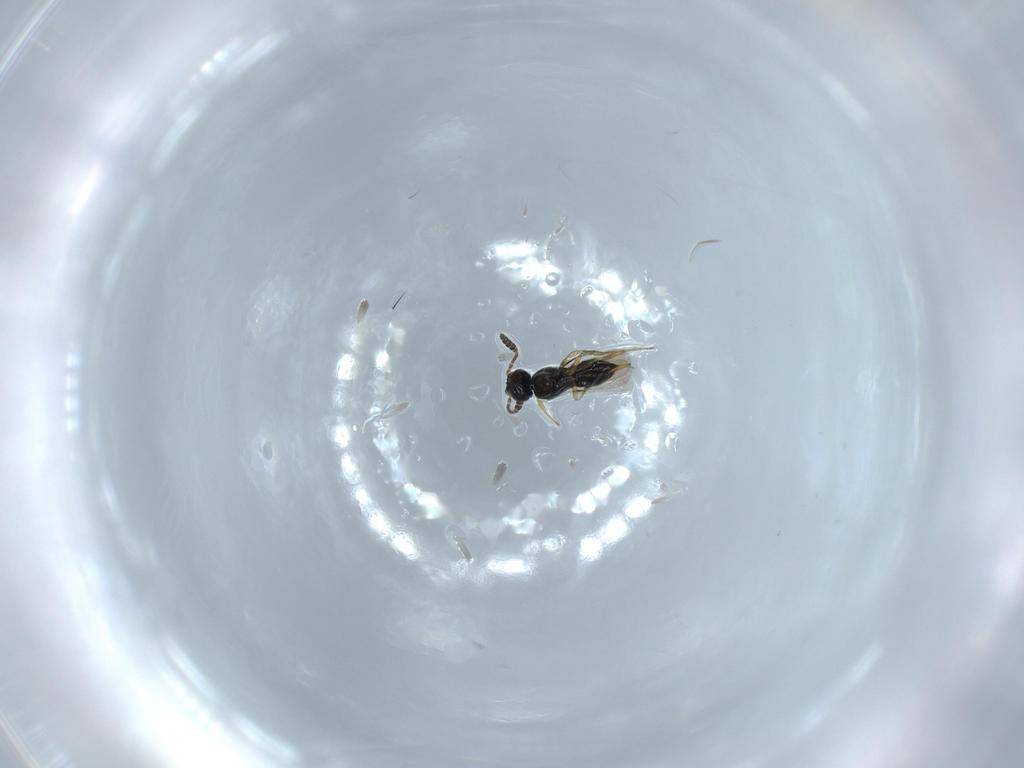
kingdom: Animalia
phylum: Arthropoda
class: Insecta
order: Hymenoptera
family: Scelionidae
